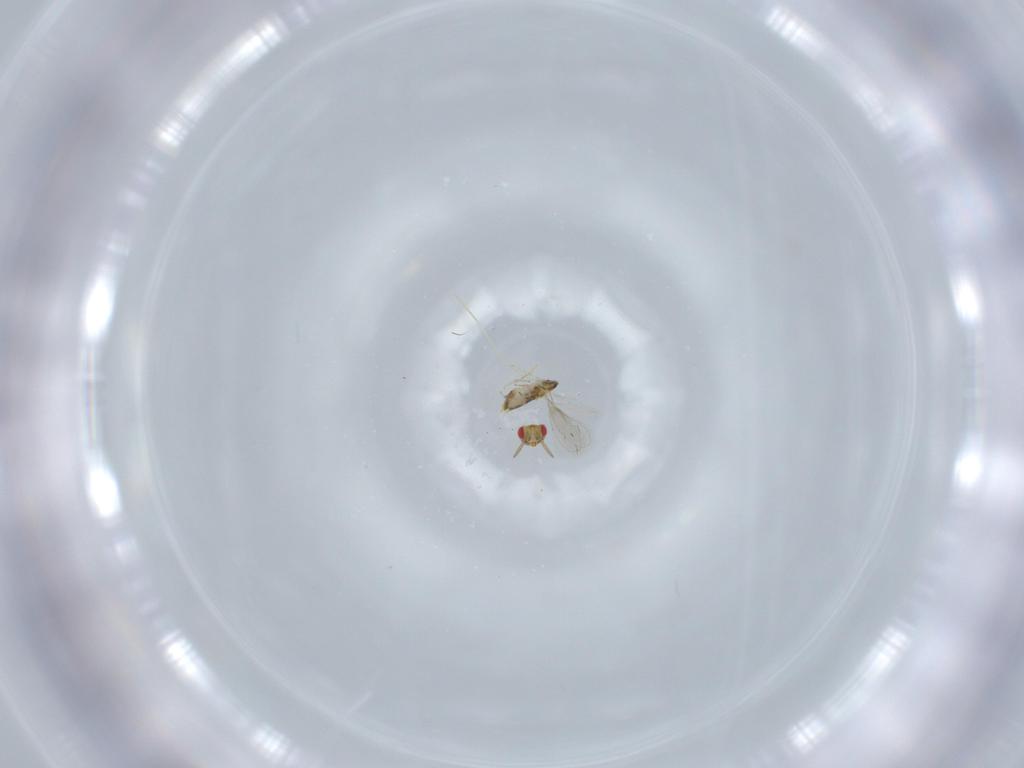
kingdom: Animalia
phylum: Arthropoda
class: Insecta
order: Hymenoptera
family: Aphelinidae
